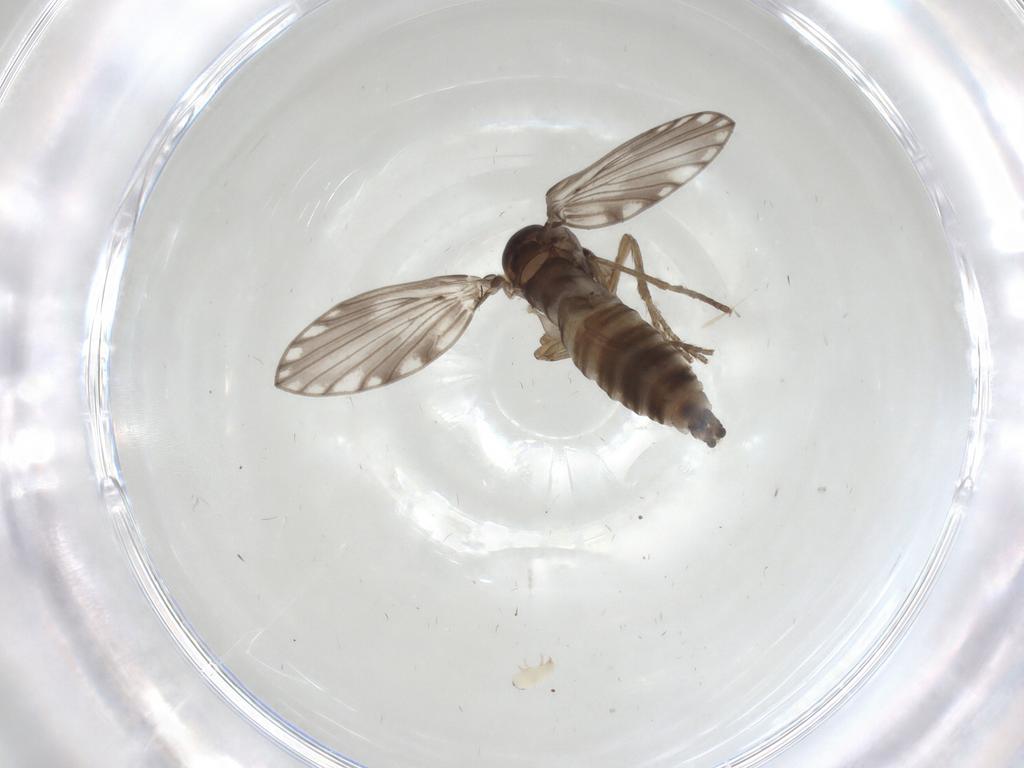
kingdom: Animalia
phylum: Arthropoda
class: Insecta
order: Diptera
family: Psychodidae
